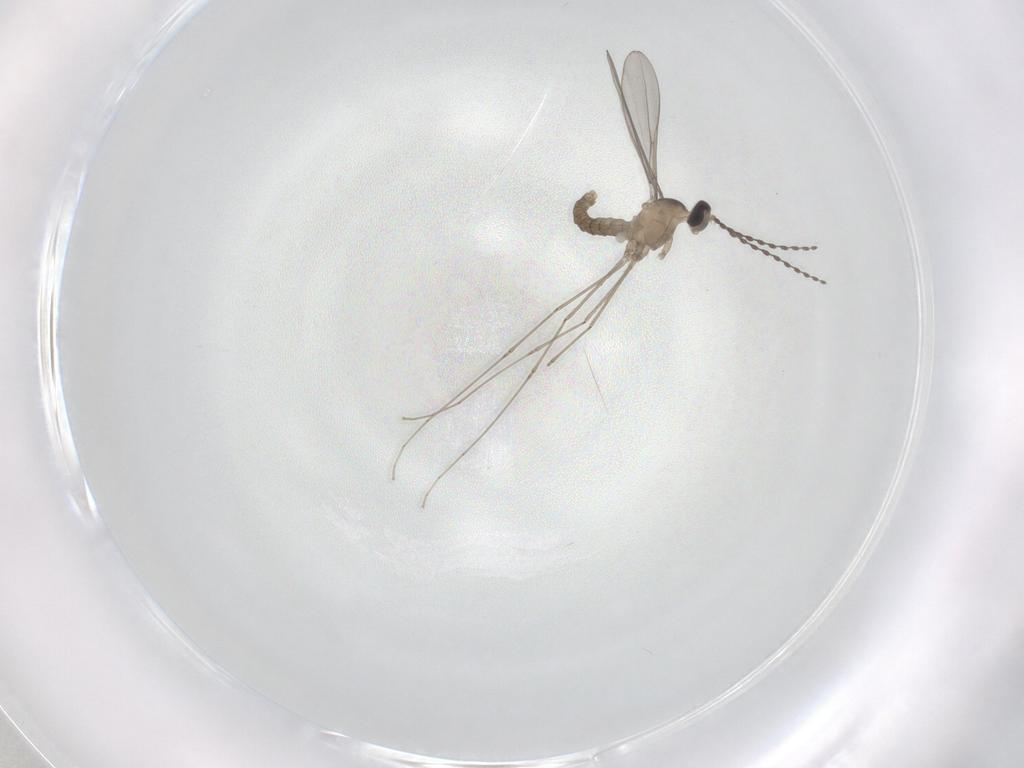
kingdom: Animalia
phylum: Arthropoda
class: Insecta
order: Diptera
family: Cecidomyiidae
